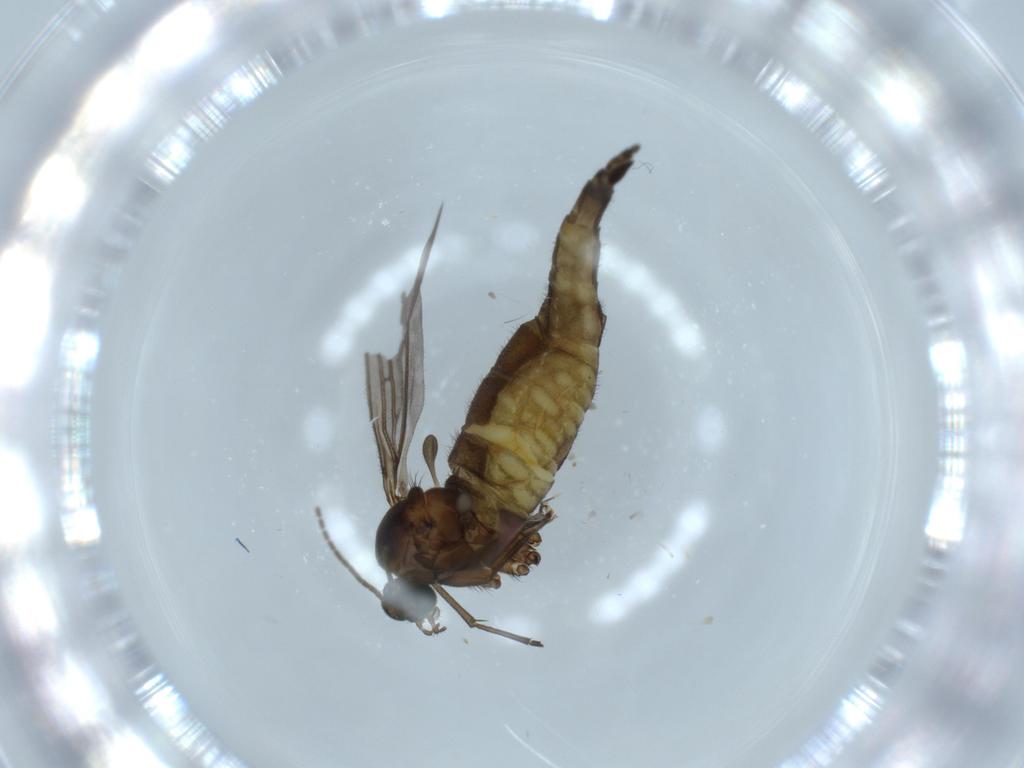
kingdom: Animalia
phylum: Arthropoda
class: Insecta
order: Diptera
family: Sciaridae
